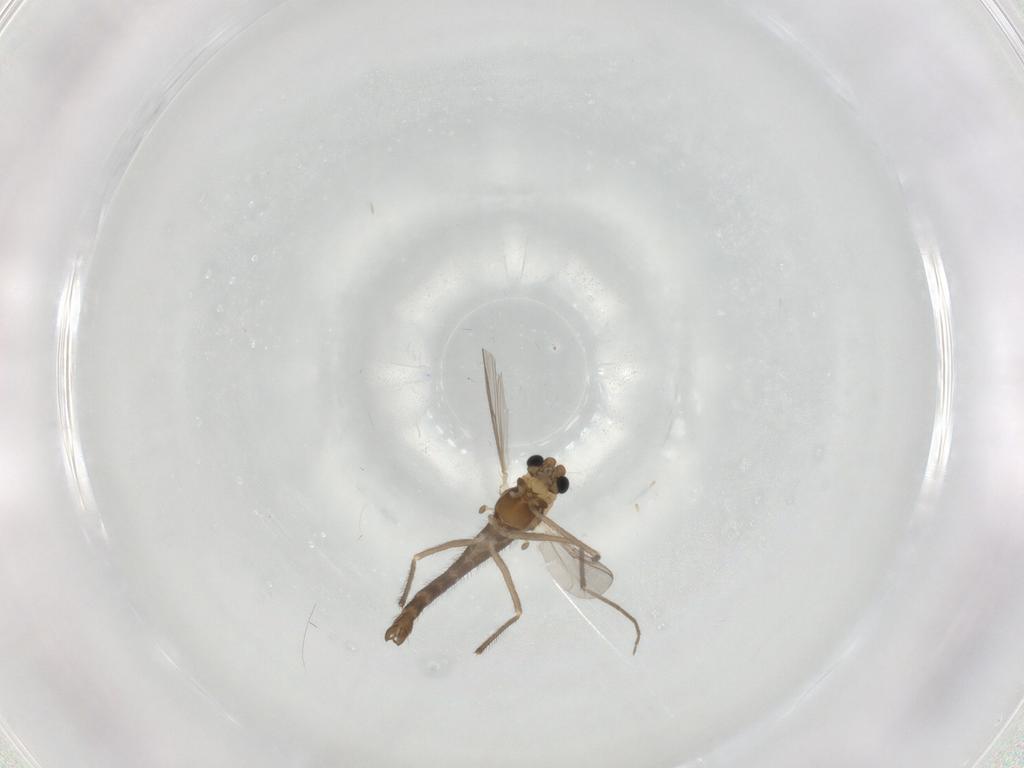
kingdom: Animalia
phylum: Arthropoda
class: Insecta
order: Diptera
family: Chironomidae
